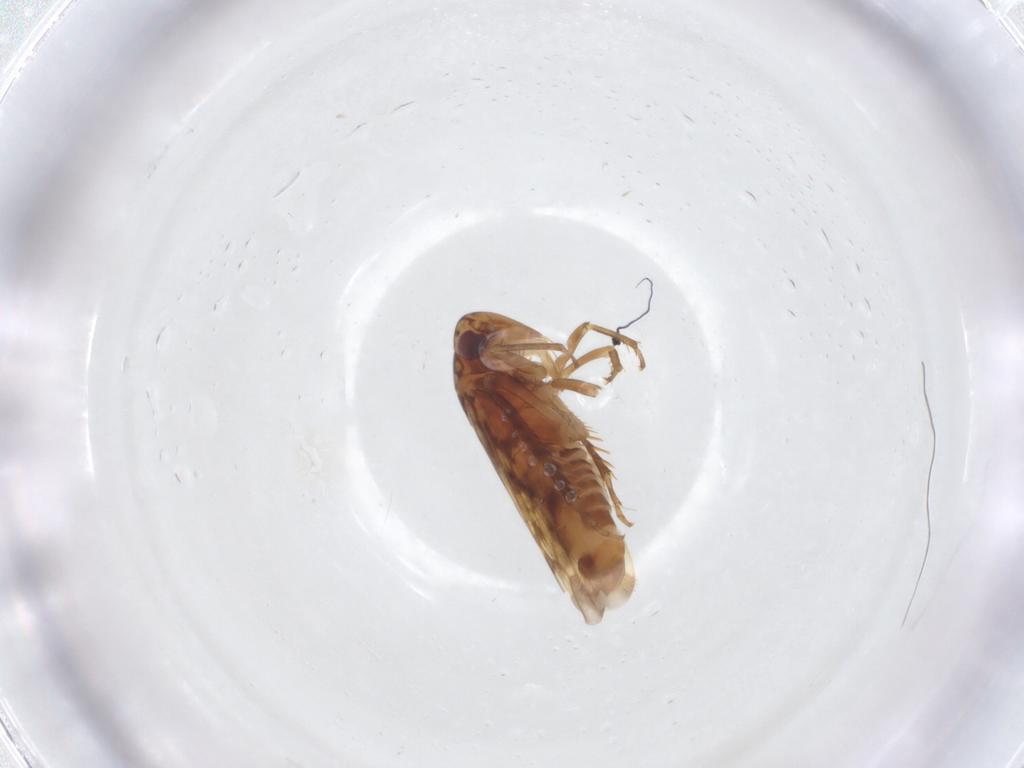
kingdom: Animalia
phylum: Arthropoda
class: Insecta
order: Hemiptera
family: Cicadellidae
